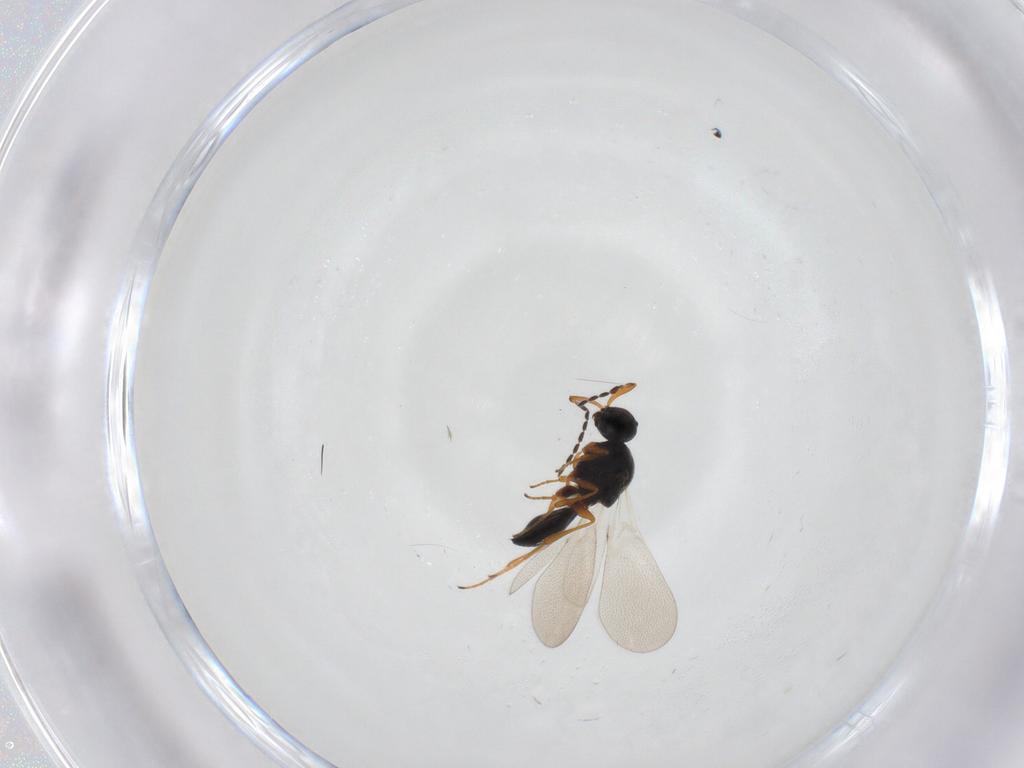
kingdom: Animalia
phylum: Arthropoda
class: Insecta
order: Hymenoptera
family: Platygastridae
